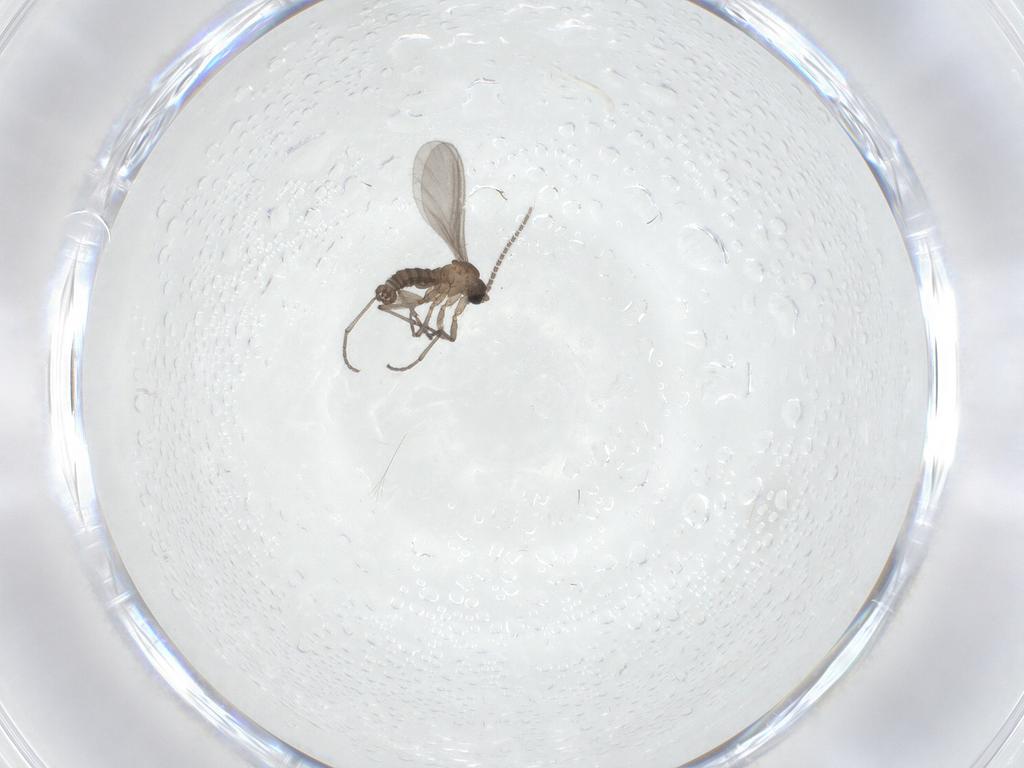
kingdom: Animalia
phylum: Arthropoda
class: Insecta
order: Diptera
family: Sciaridae
